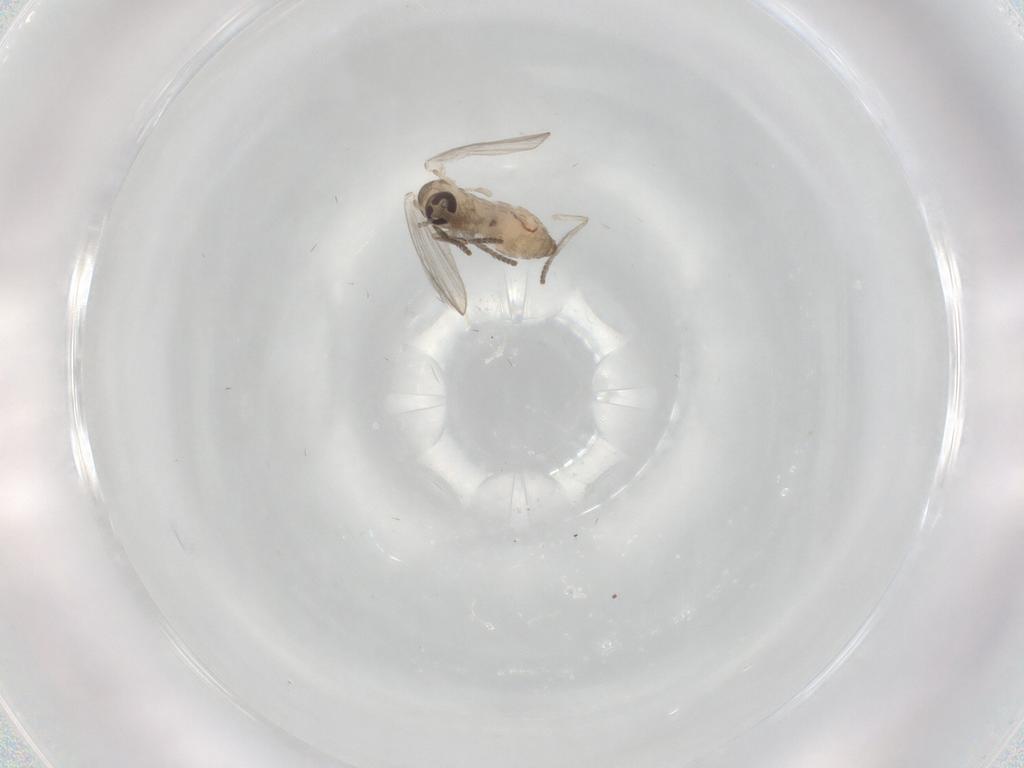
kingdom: Animalia
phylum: Arthropoda
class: Insecta
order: Diptera
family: Psychodidae
